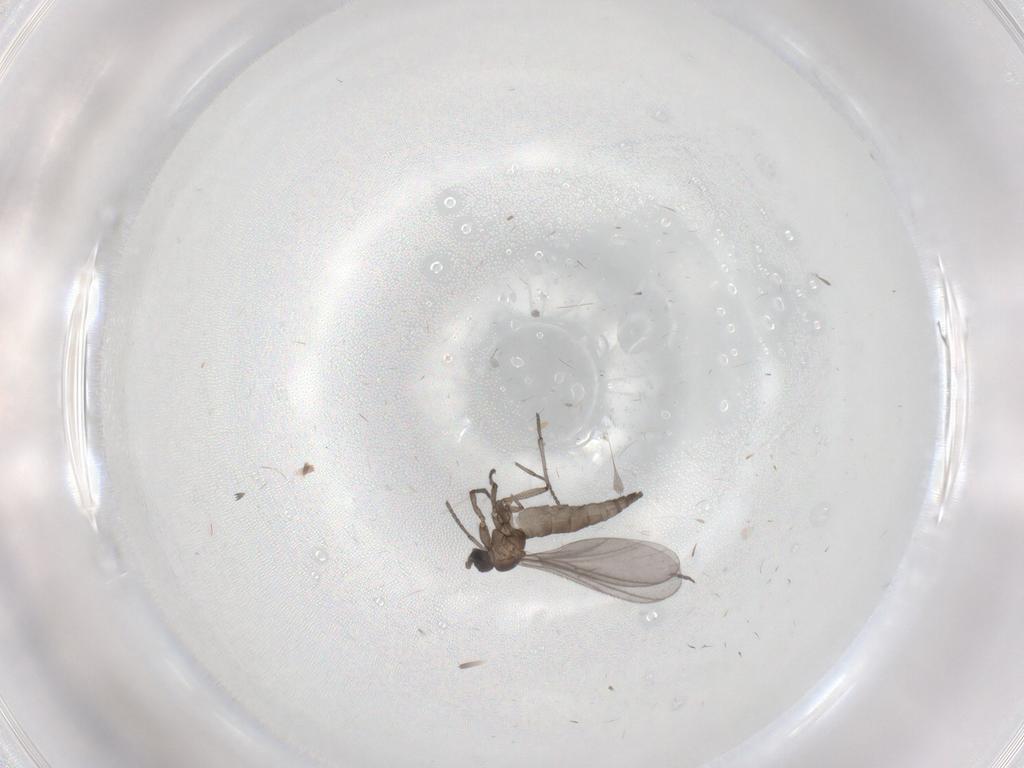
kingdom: Animalia
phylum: Arthropoda
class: Insecta
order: Diptera
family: Sciaridae
